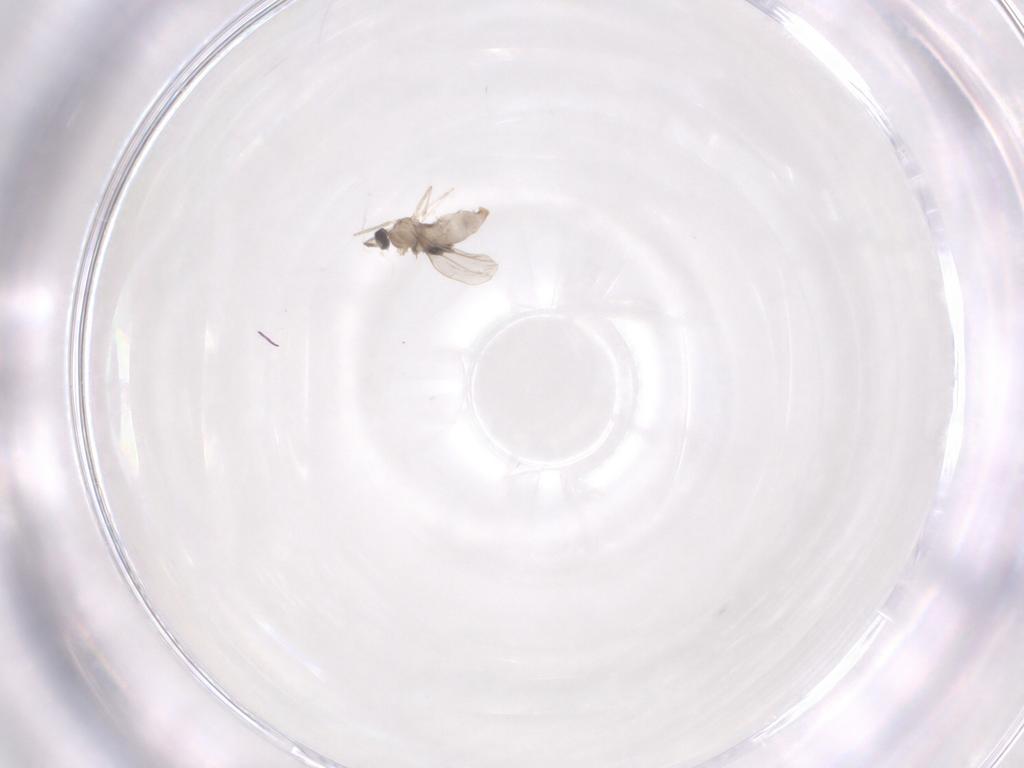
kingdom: Animalia
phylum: Arthropoda
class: Insecta
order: Diptera
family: Cecidomyiidae
